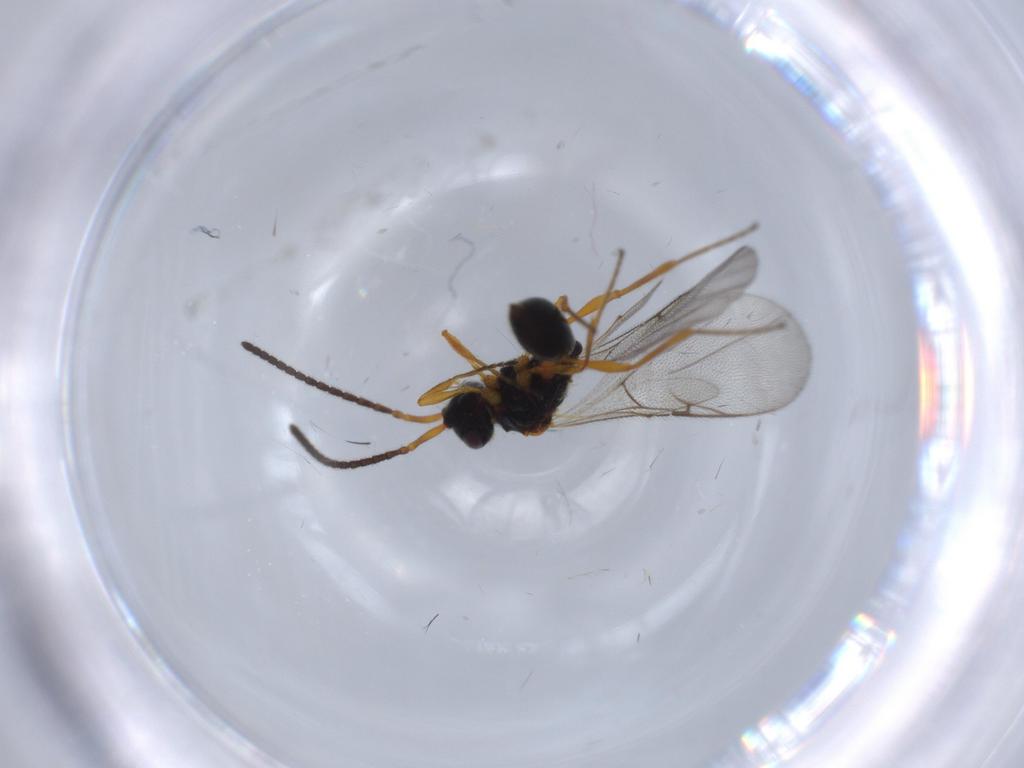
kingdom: Animalia
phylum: Arthropoda
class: Insecta
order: Hymenoptera
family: Diapriidae
